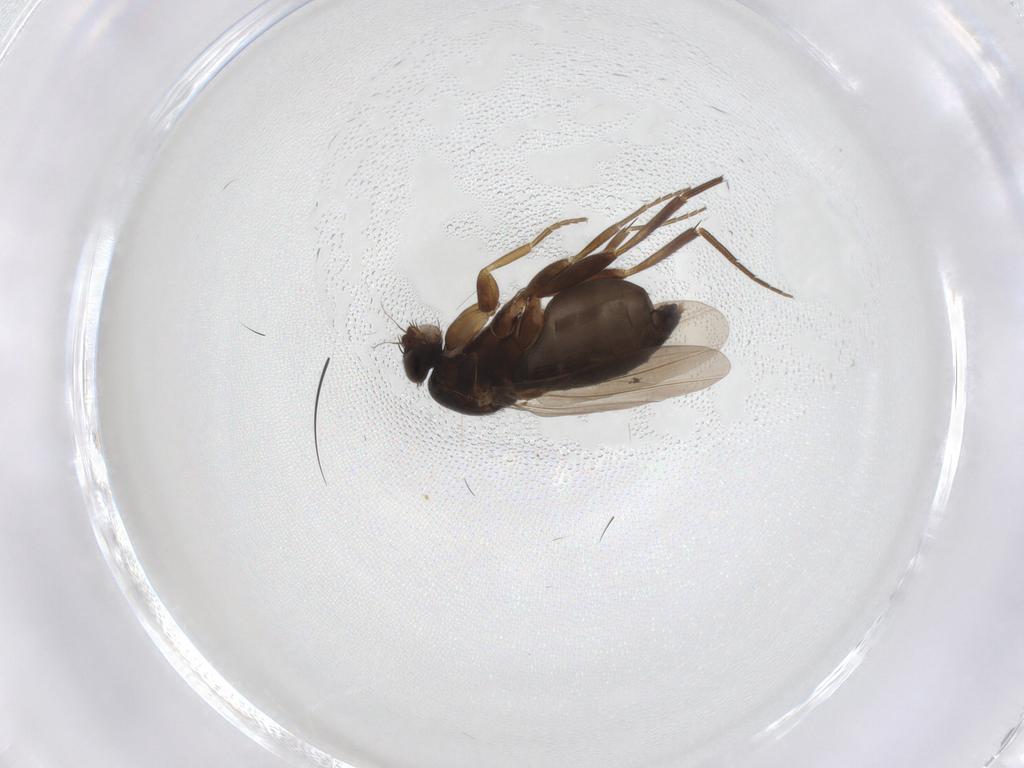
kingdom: Animalia
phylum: Arthropoda
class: Insecta
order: Diptera
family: Phoridae
